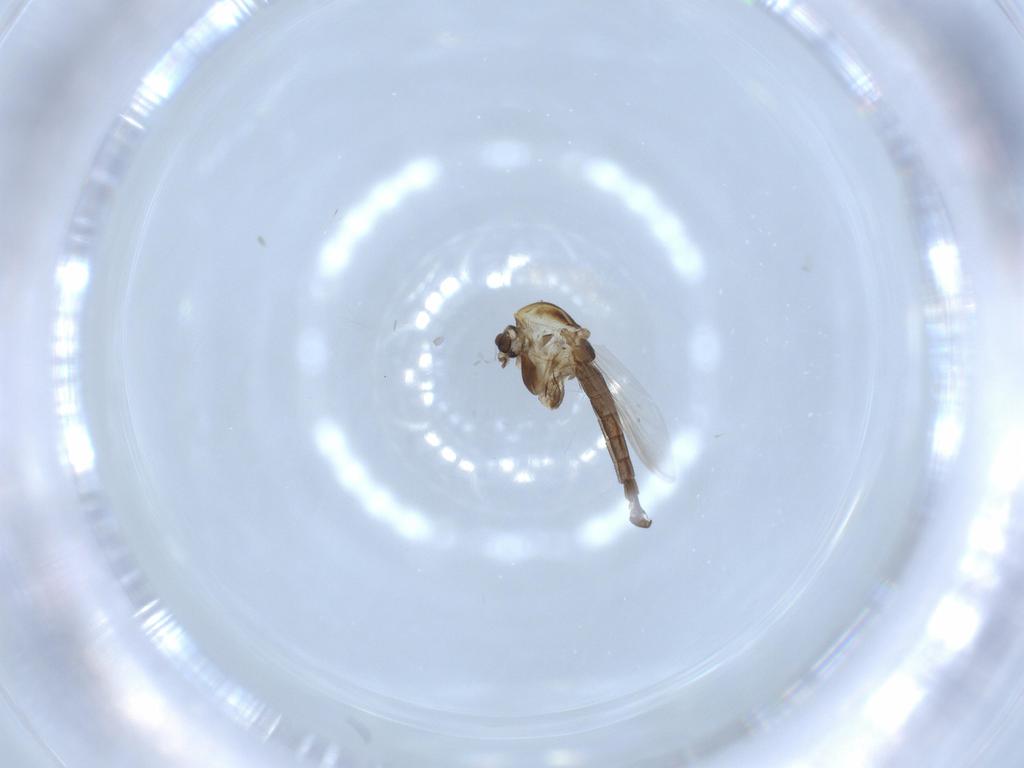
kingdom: Animalia
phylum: Arthropoda
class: Insecta
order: Diptera
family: Chironomidae
